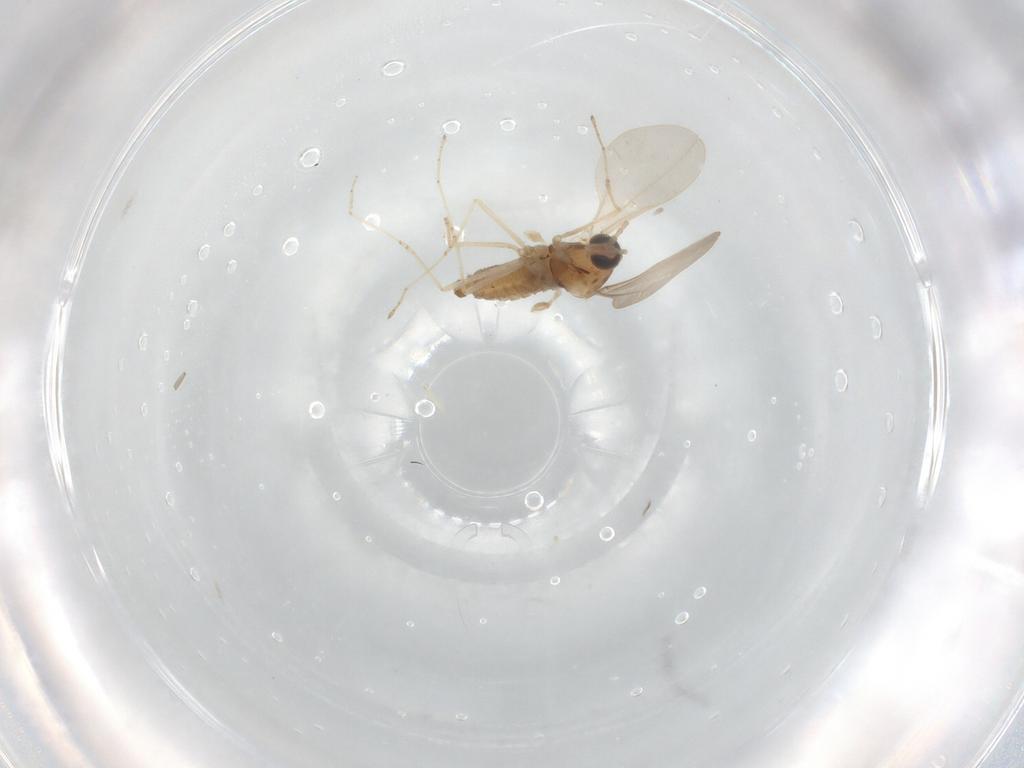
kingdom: Animalia
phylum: Arthropoda
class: Insecta
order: Diptera
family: Cecidomyiidae
